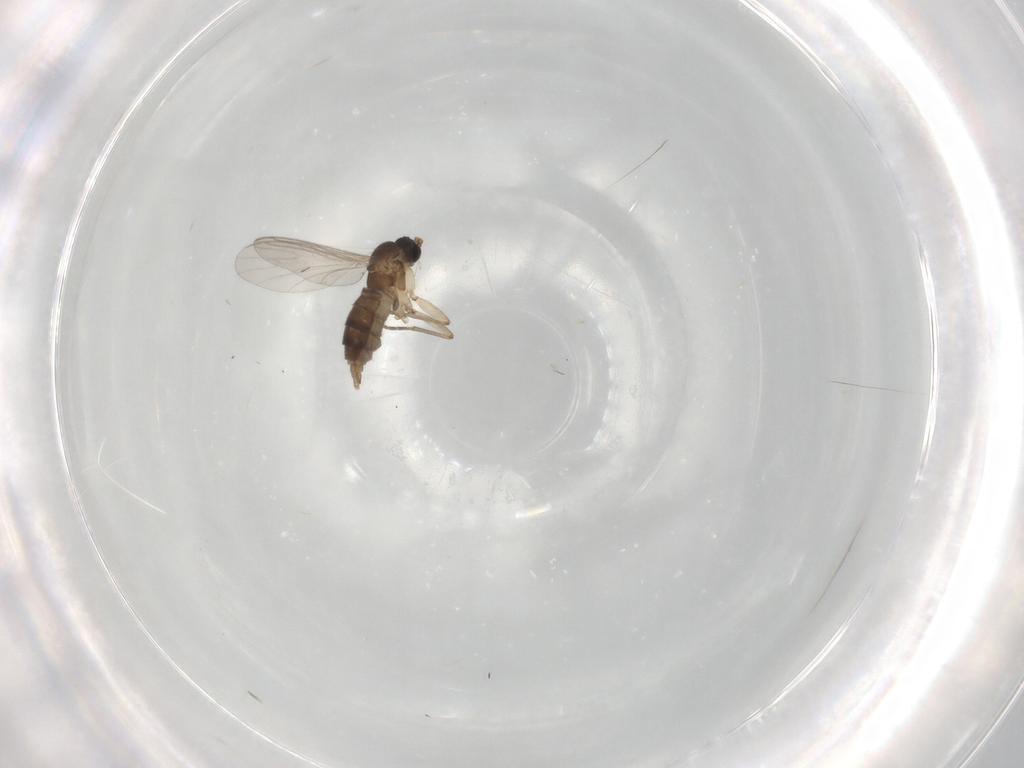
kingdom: Animalia
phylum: Arthropoda
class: Insecta
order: Diptera
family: Sciaridae
